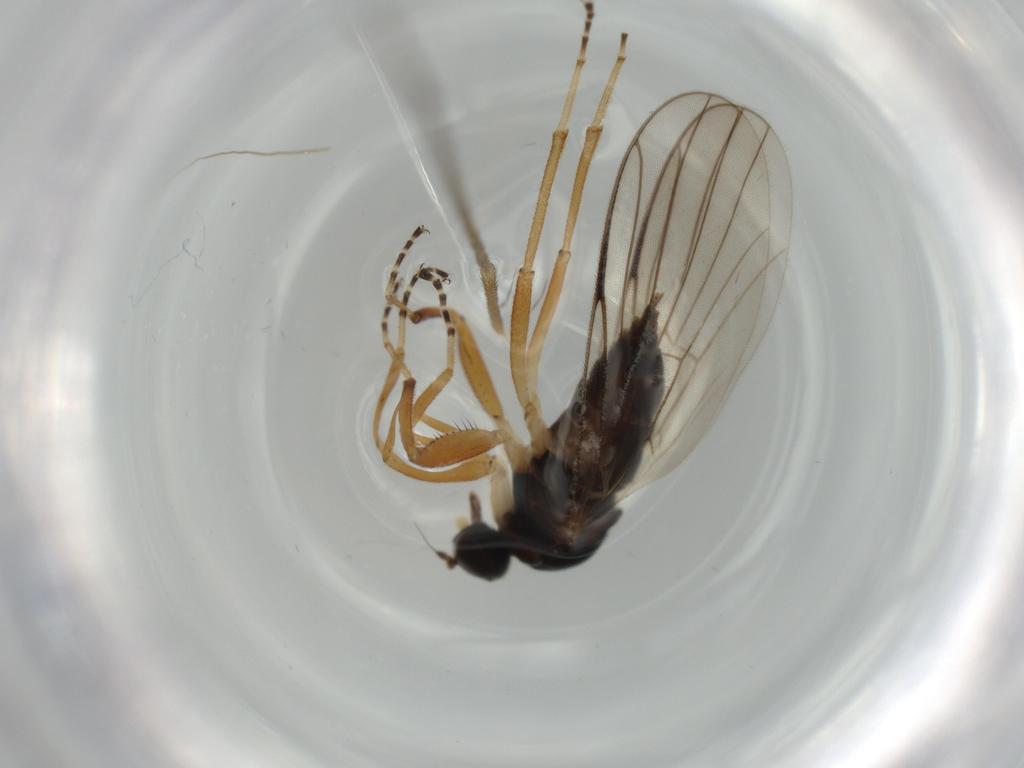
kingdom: Animalia
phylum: Arthropoda
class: Insecta
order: Diptera
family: Hybotidae
